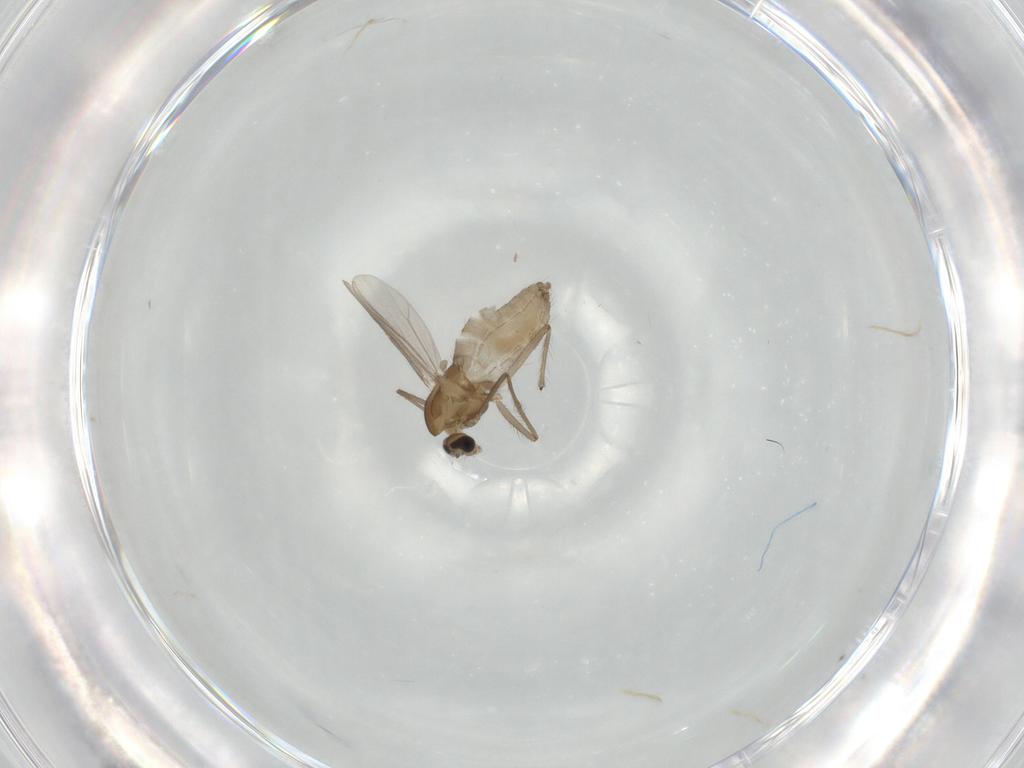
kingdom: Animalia
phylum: Arthropoda
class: Insecta
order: Diptera
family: Chironomidae
